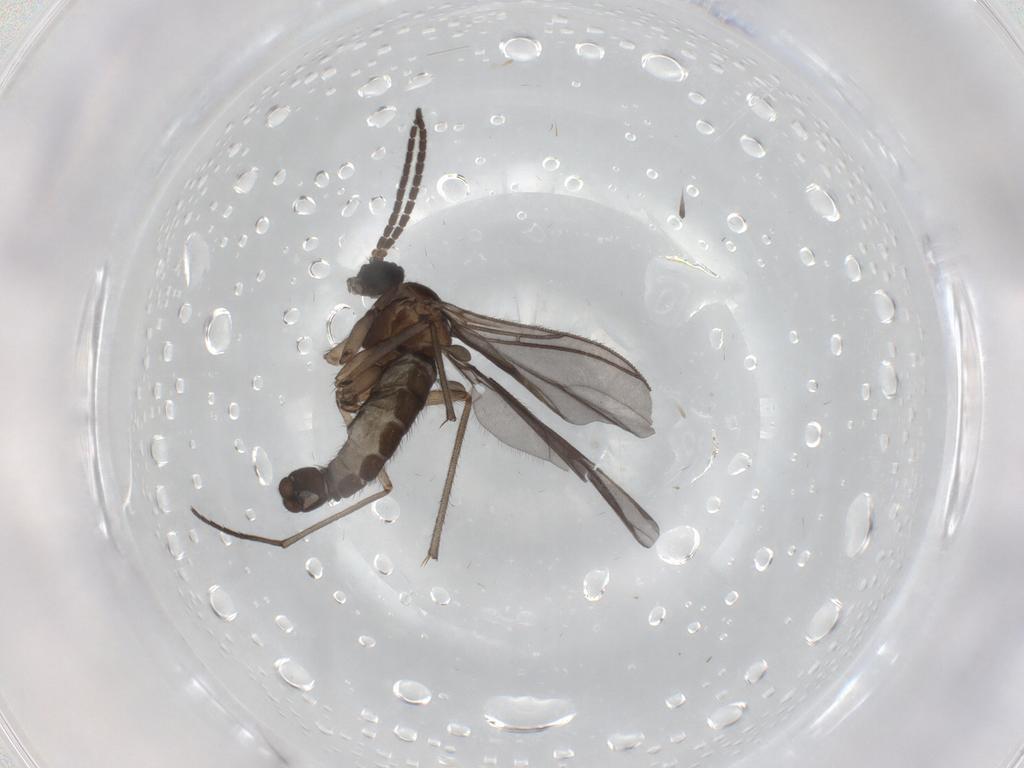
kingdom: Animalia
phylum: Arthropoda
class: Insecta
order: Diptera
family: Sciaridae
